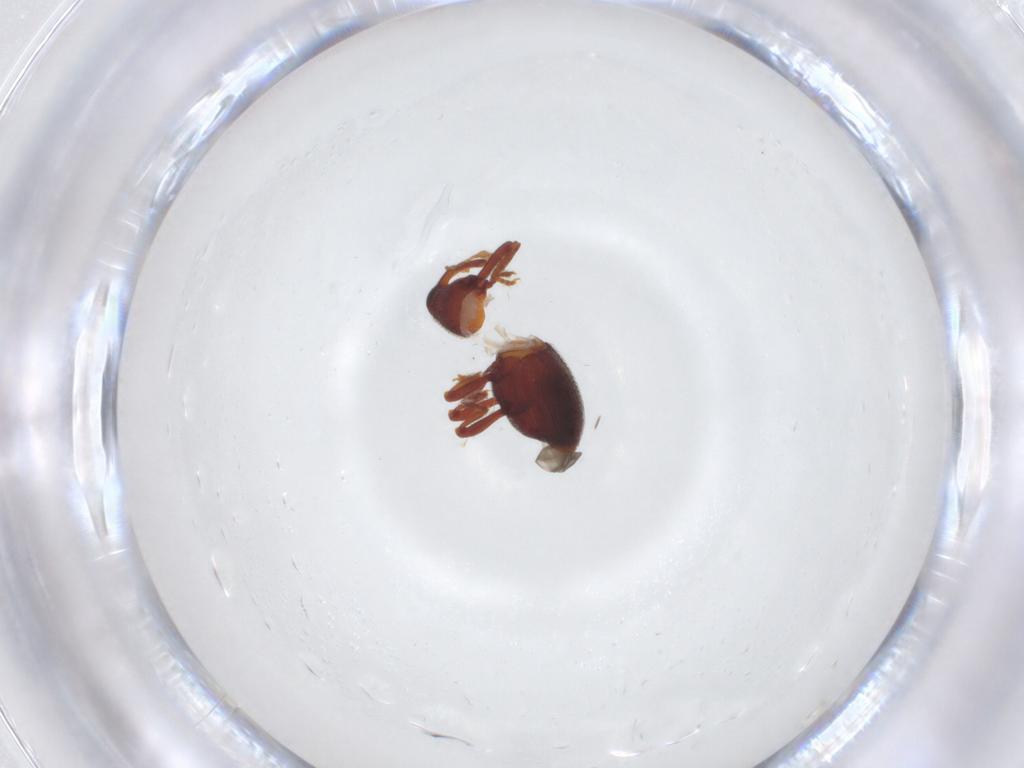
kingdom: Animalia
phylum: Arthropoda
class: Insecta
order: Coleoptera
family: Curculionidae
